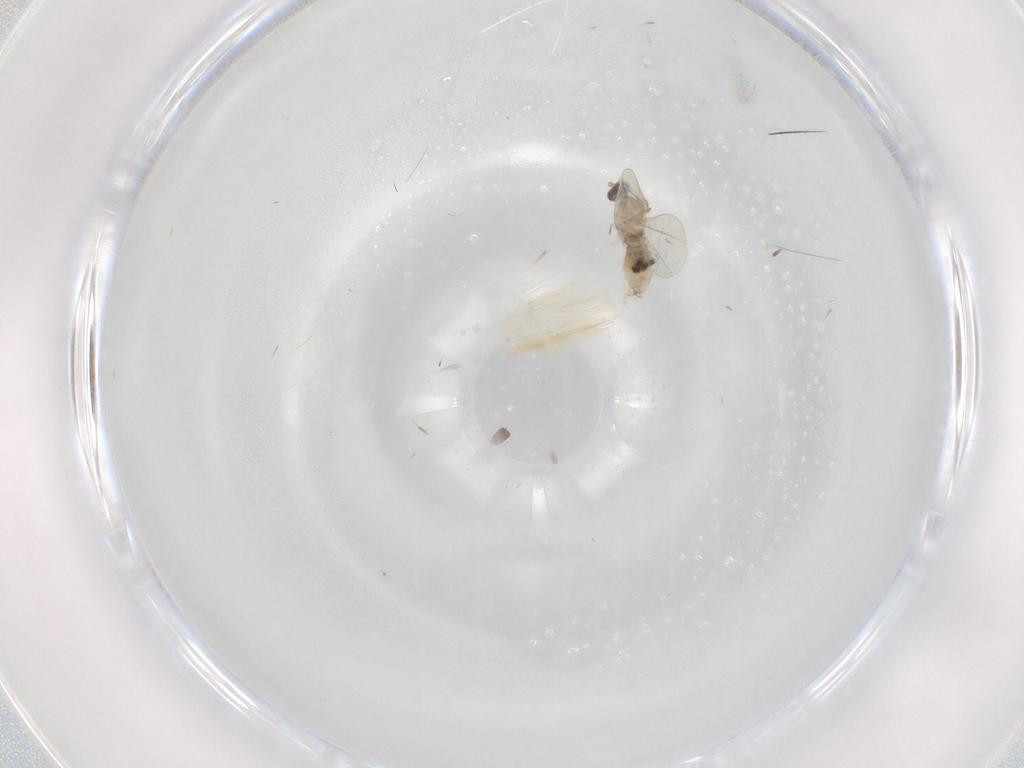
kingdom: Animalia
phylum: Arthropoda
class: Insecta
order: Diptera
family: Cecidomyiidae
